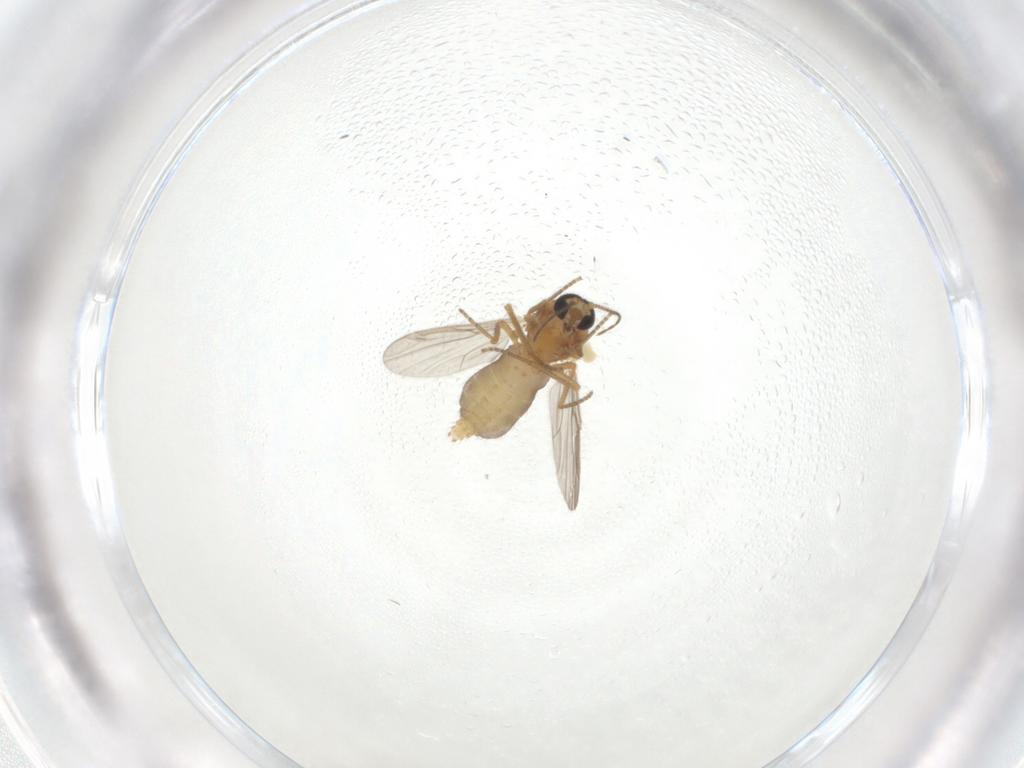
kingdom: Animalia
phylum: Arthropoda
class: Insecta
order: Diptera
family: Ceratopogonidae
